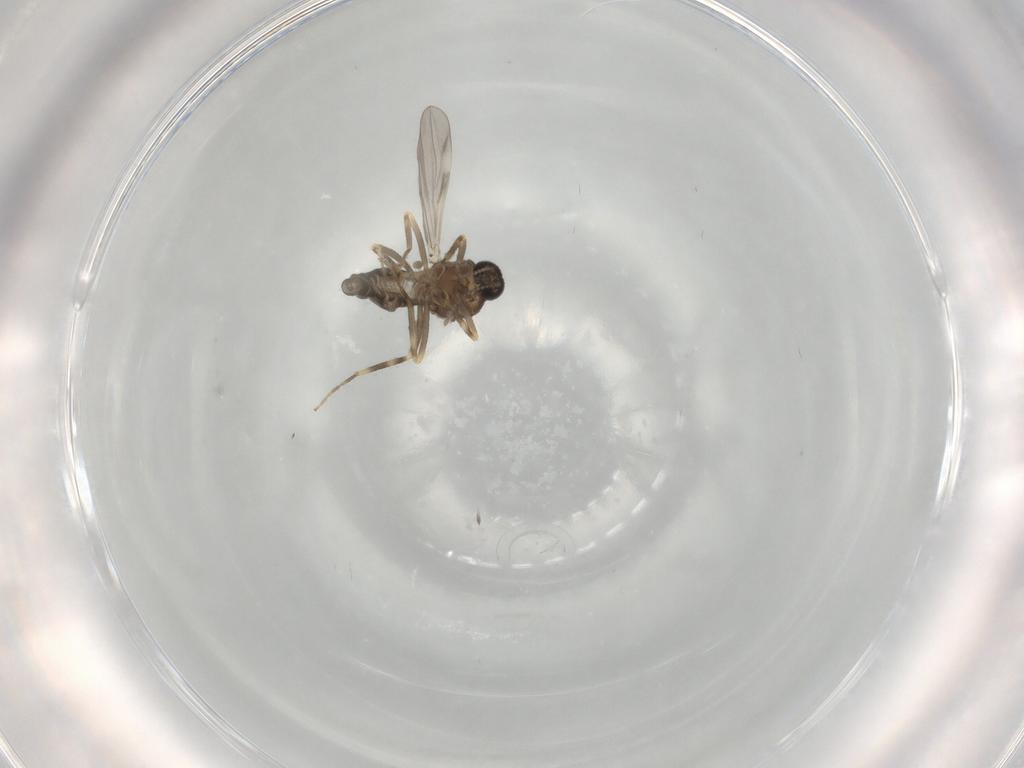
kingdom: Animalia
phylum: Arthropoda
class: Insecta
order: Diptera
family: Ceratopogonidae
